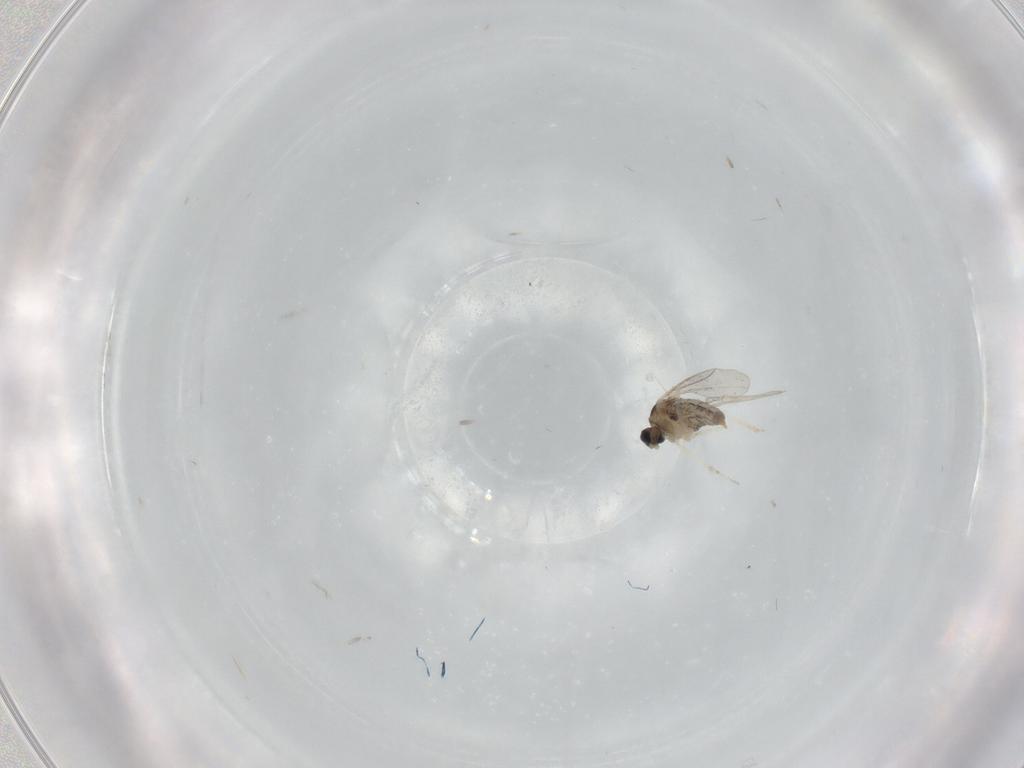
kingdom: Animalia
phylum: Arthropoda
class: Insecta
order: Diptera
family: Cecidomyiidae
